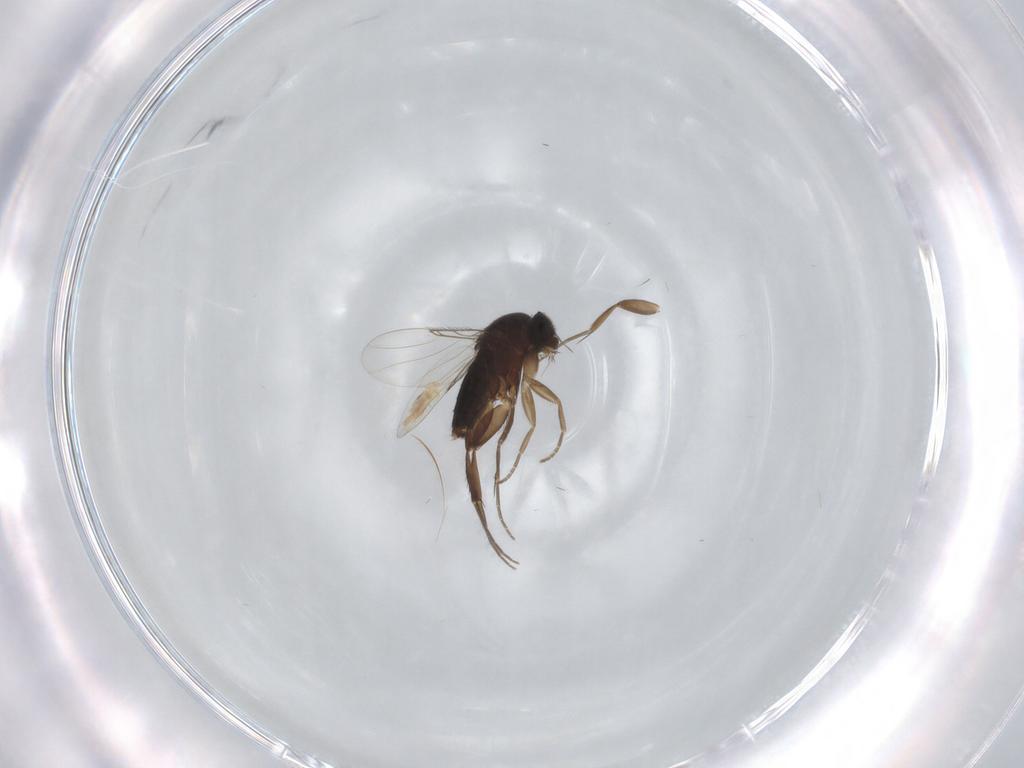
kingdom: Animalia
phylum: Arthropoda
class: Insecta
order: Diptera
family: Phoridae
